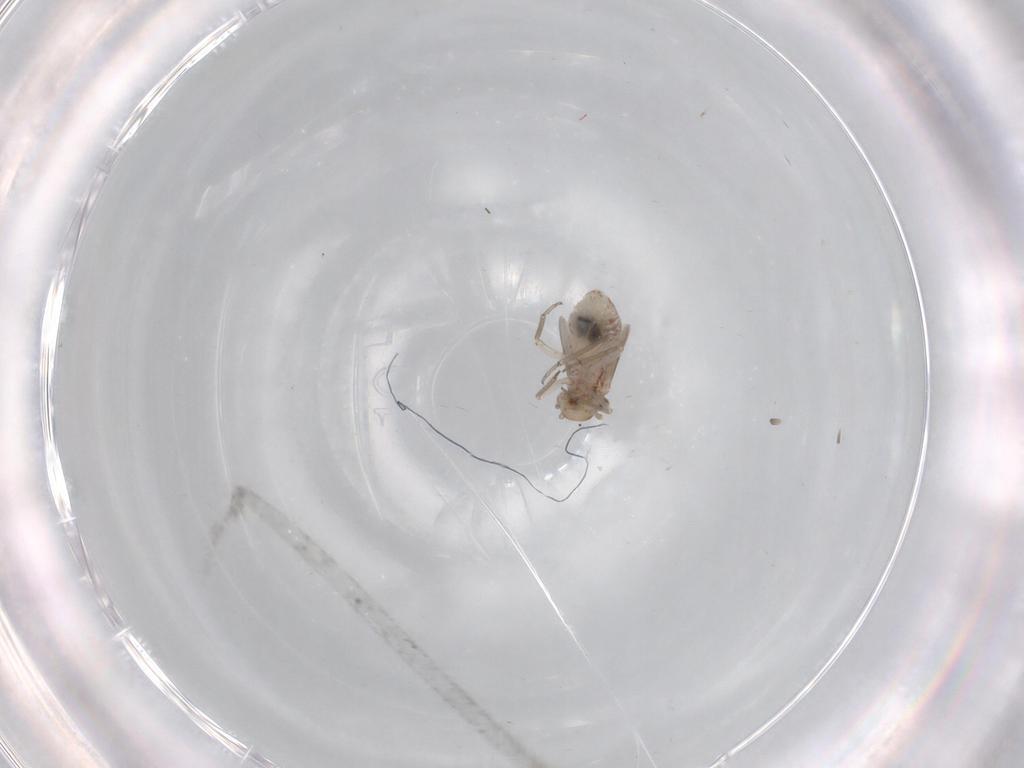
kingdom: Animalia
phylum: Arthropoda
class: Insecta
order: Psocodea
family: Lachesillidae
